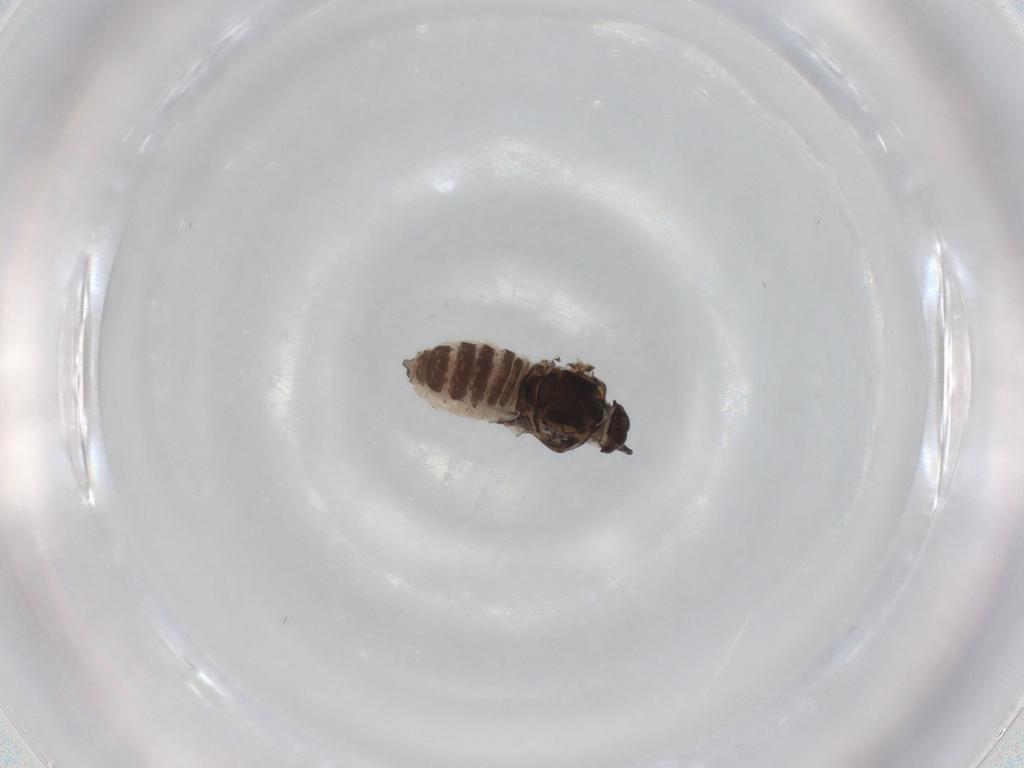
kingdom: Animalia
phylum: Arthropoda
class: Insecta
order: Hemiptera
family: Aphididae
